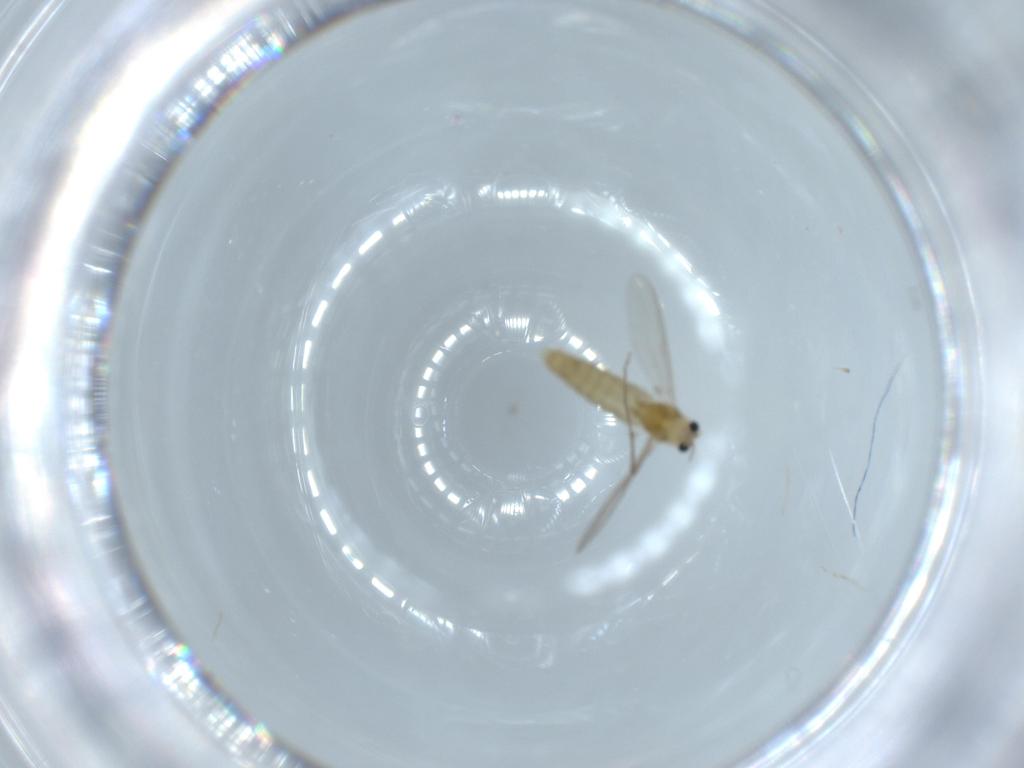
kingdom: Animalia
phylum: Arthropoda
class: Insecta
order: Diptera
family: Chironomidae
